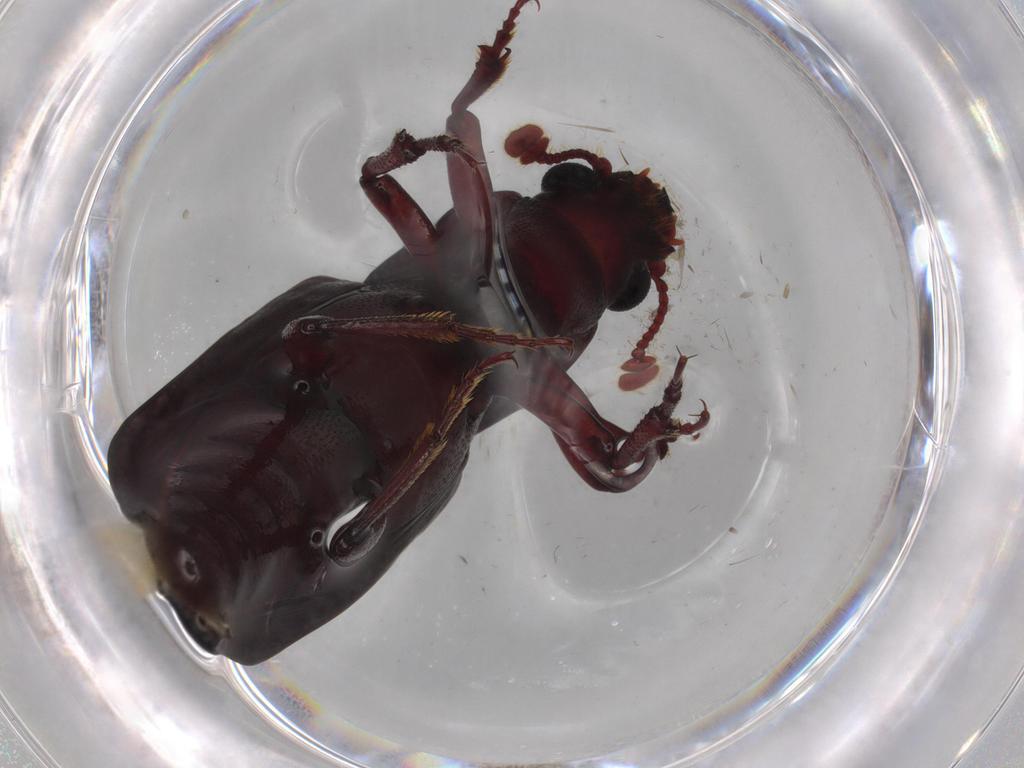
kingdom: Animalia
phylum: Arthropoda
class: Insecta
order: Coleoptera
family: Bothrideridae
